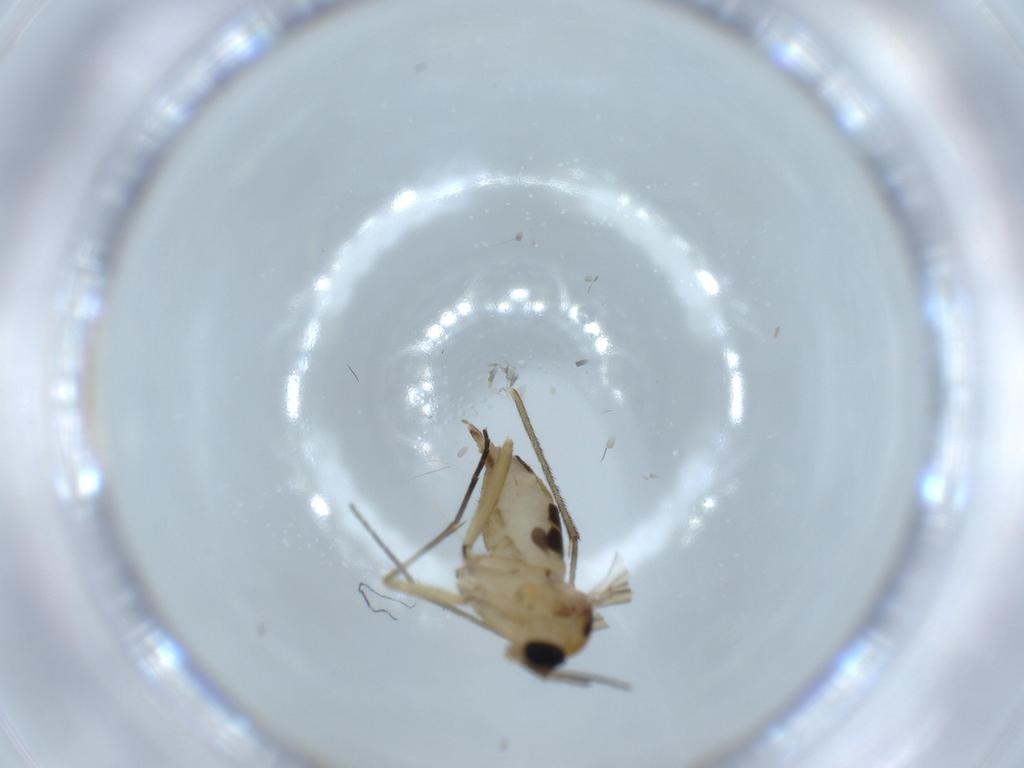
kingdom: Animalia
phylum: Arthropoda
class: Insecta
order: Diptera
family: Sciaridae
